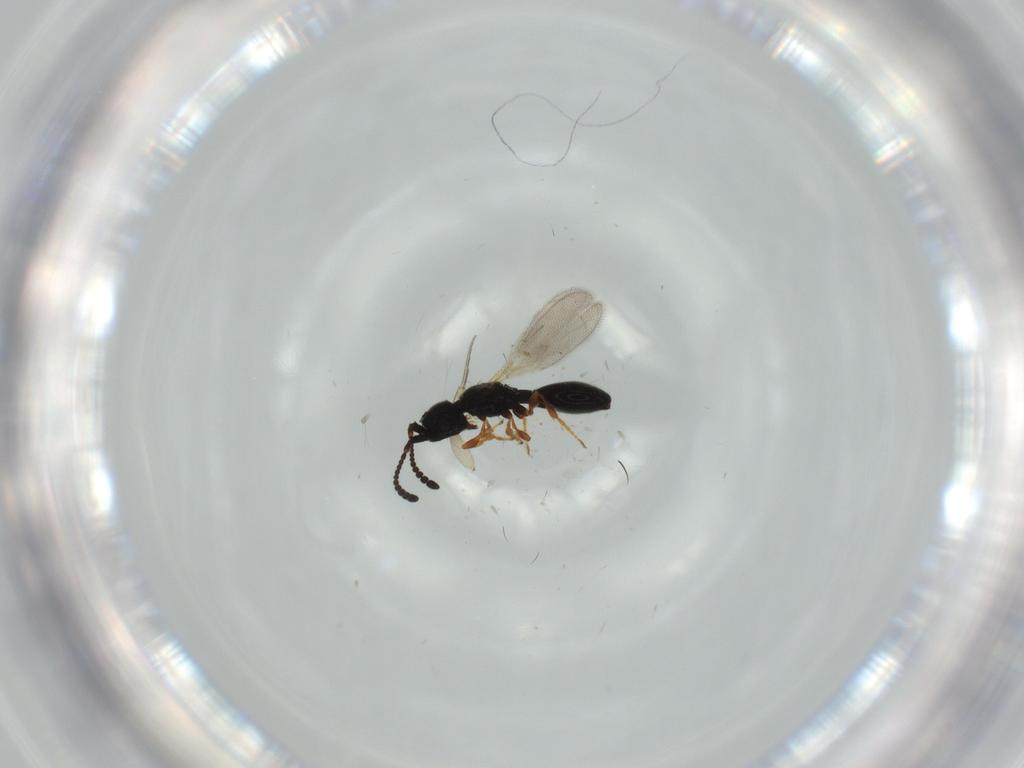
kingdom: Animalia
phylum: Arthropoda
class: Insecta
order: Hymenoptera
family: Diapriidae
